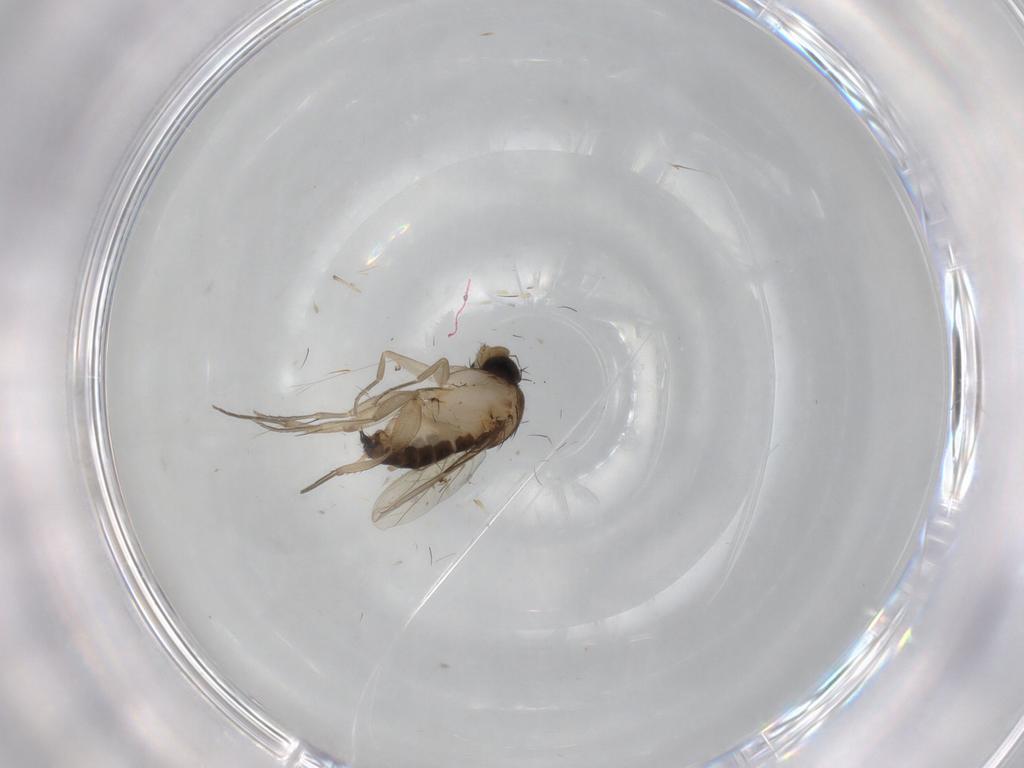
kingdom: Animalia
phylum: Arthropoda
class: Insecta
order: Diptera
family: Phoridae
